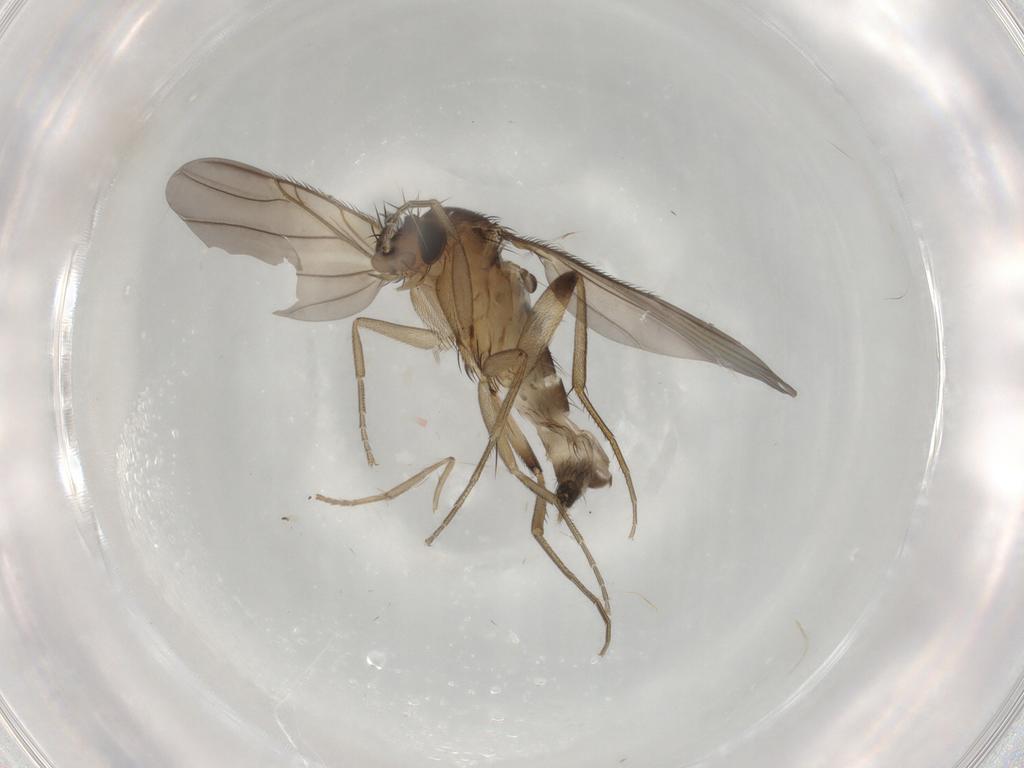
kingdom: Animalia
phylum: Arthropoda
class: Insecta
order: Diptera
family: Phoridae
